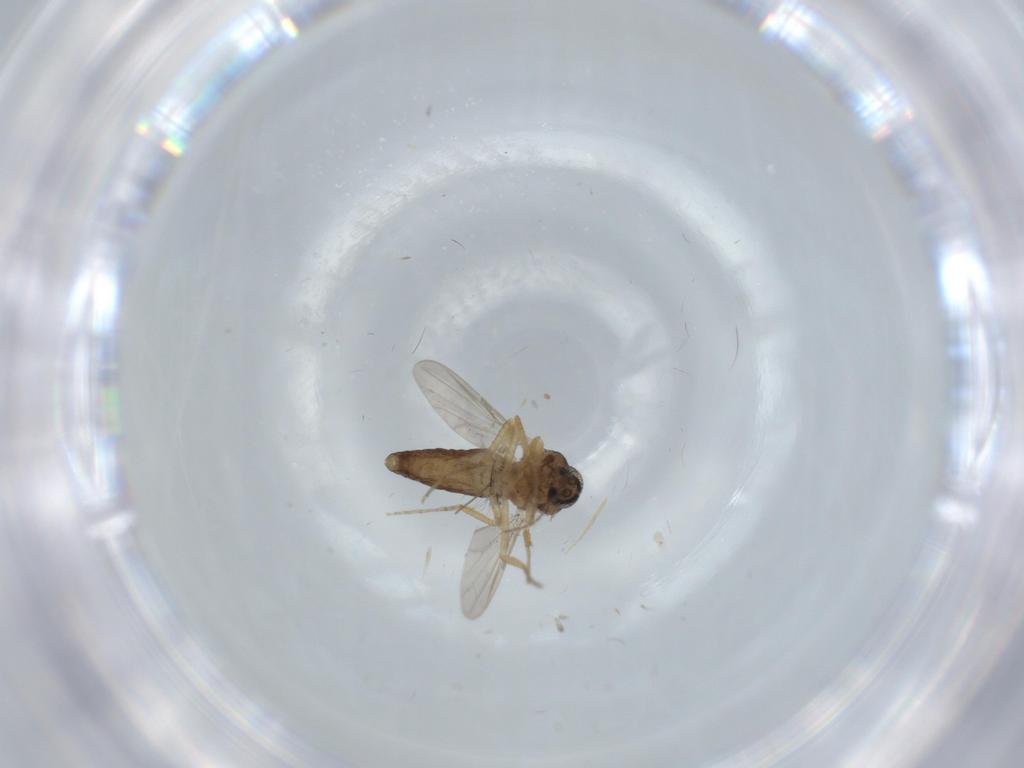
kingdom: Animalia
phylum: Arthropoda
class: Insecta
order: Diptera
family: Ceratopogonidae
